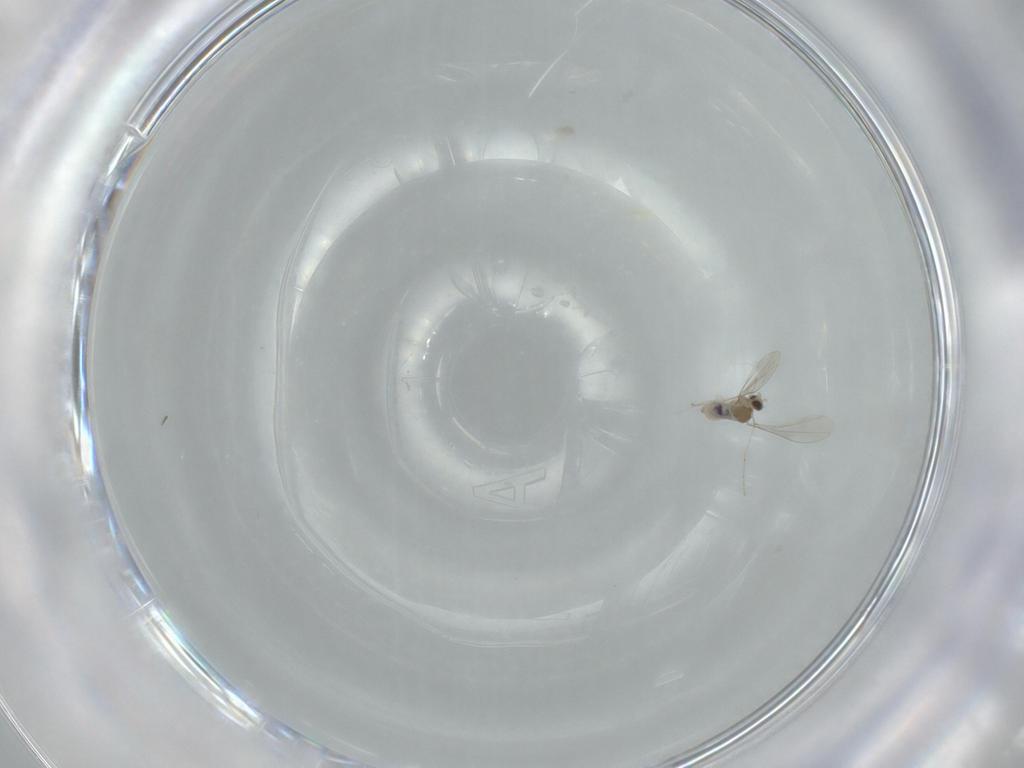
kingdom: Animalia
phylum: Arthropoda
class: Insecta
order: Diptera
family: Cecidomyiidae
